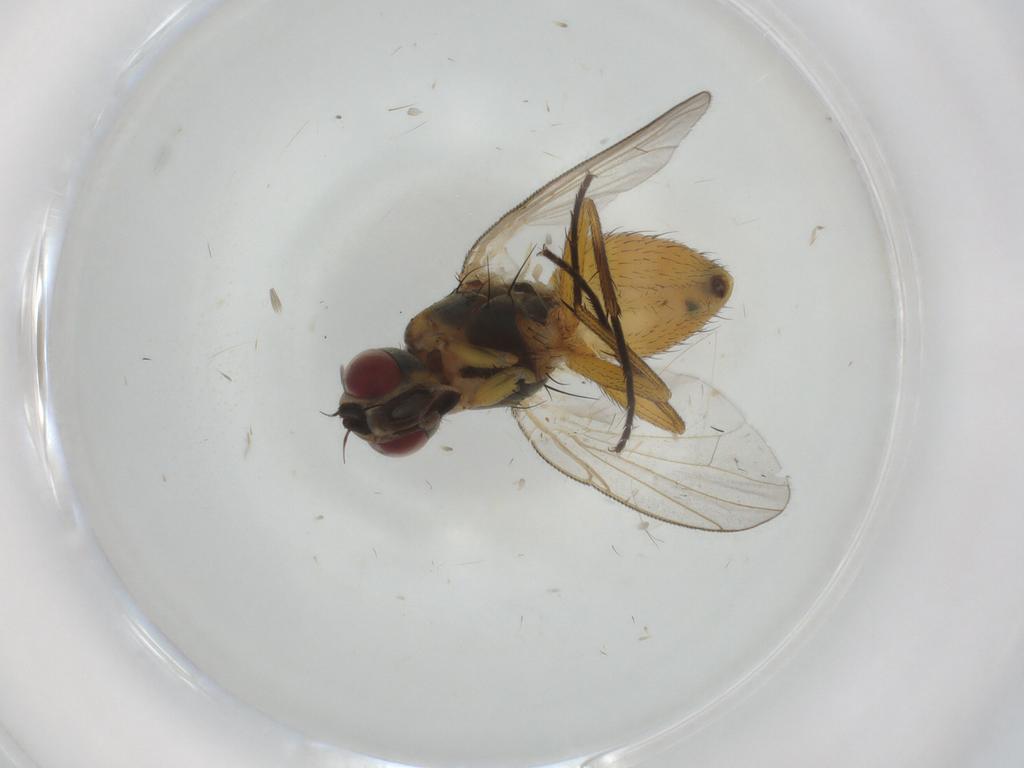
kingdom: Animalia
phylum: Arthropoda
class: Insecta
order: Diptera
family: Muscidae
